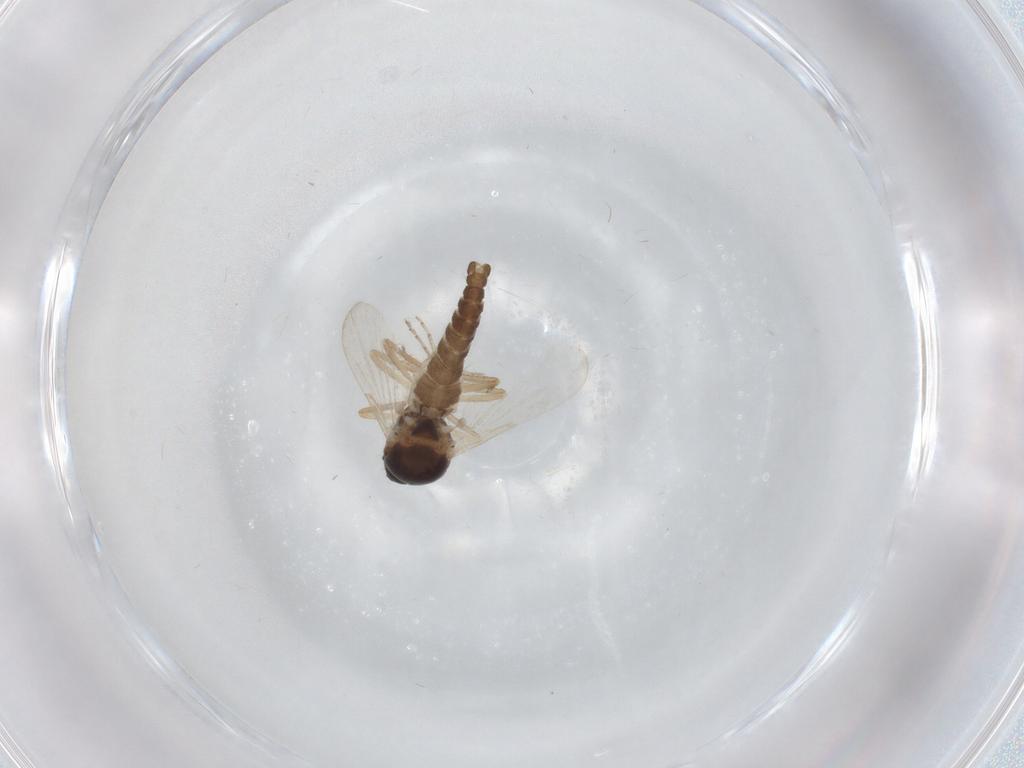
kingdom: Animalia
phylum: Arthropoda
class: Insecta
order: Diptera
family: Ceratopogonidae
